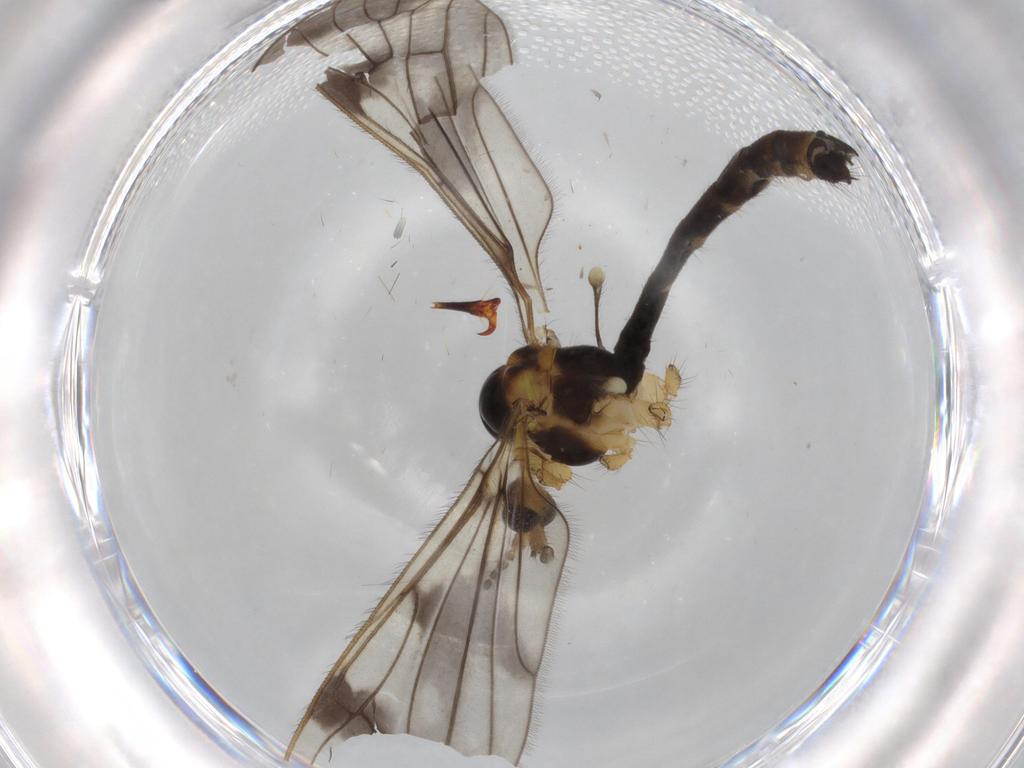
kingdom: Animalia
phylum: Arthropoda
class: Insecta
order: Diptera
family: Limoniidae
